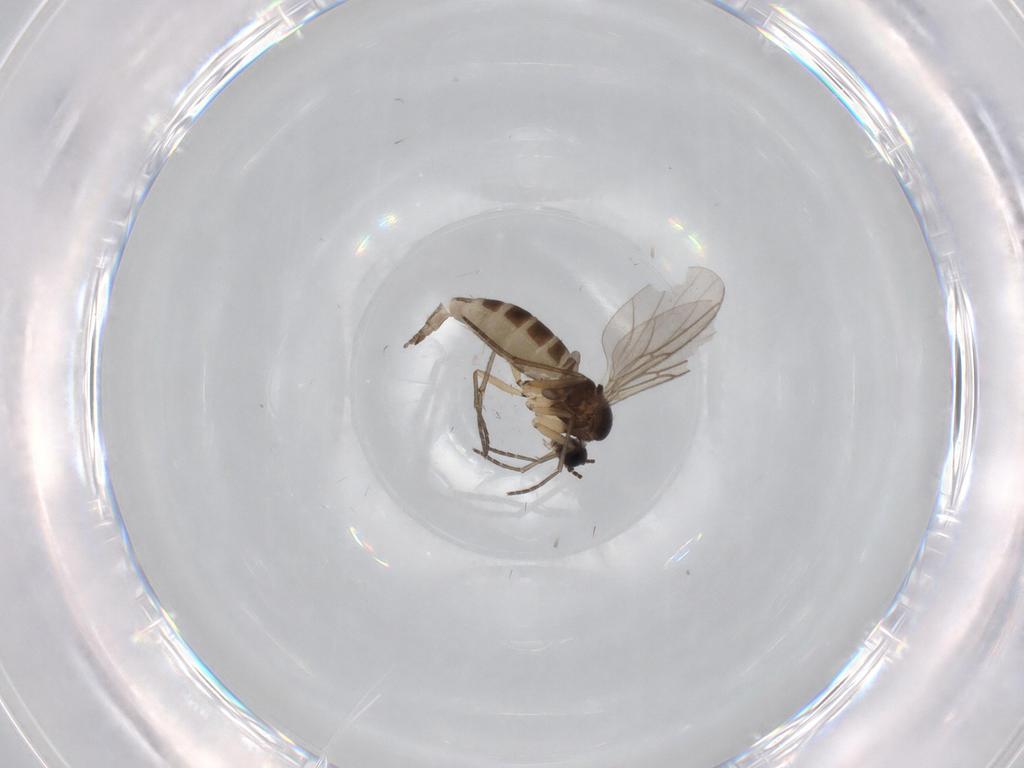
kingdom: Animalia
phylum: Arthropoda
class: Insecta
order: Diptera
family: Sciaridae
